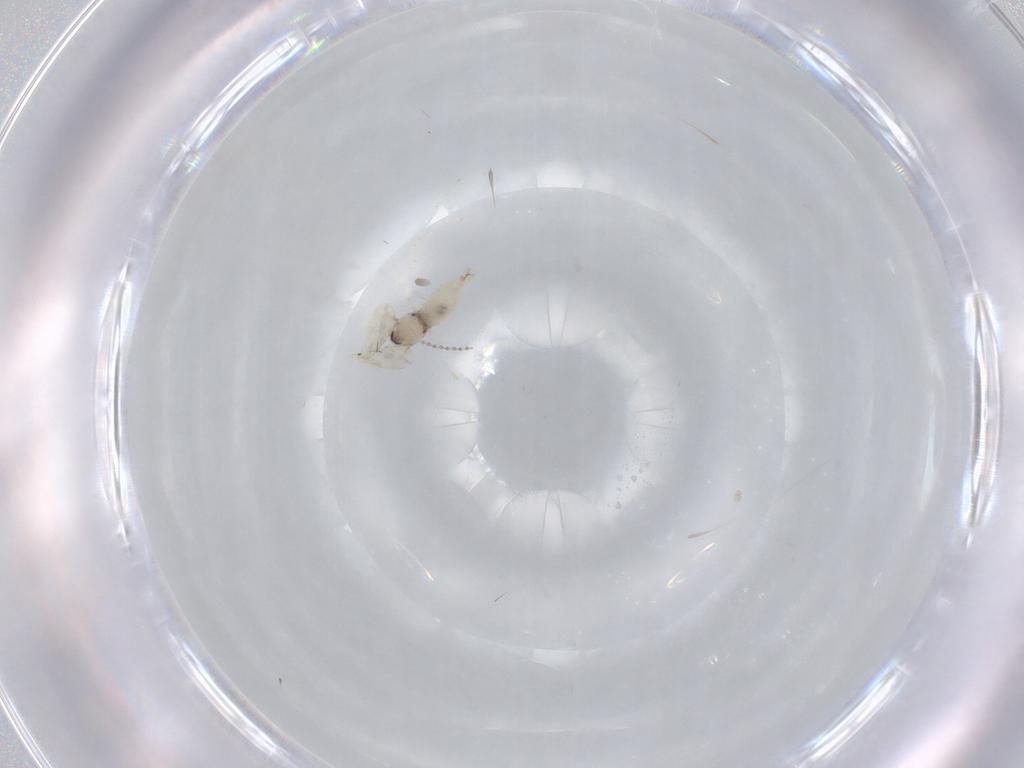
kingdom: Animalia
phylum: Arthropoda
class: Insecta
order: Diptera
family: Cecidomyiidae
